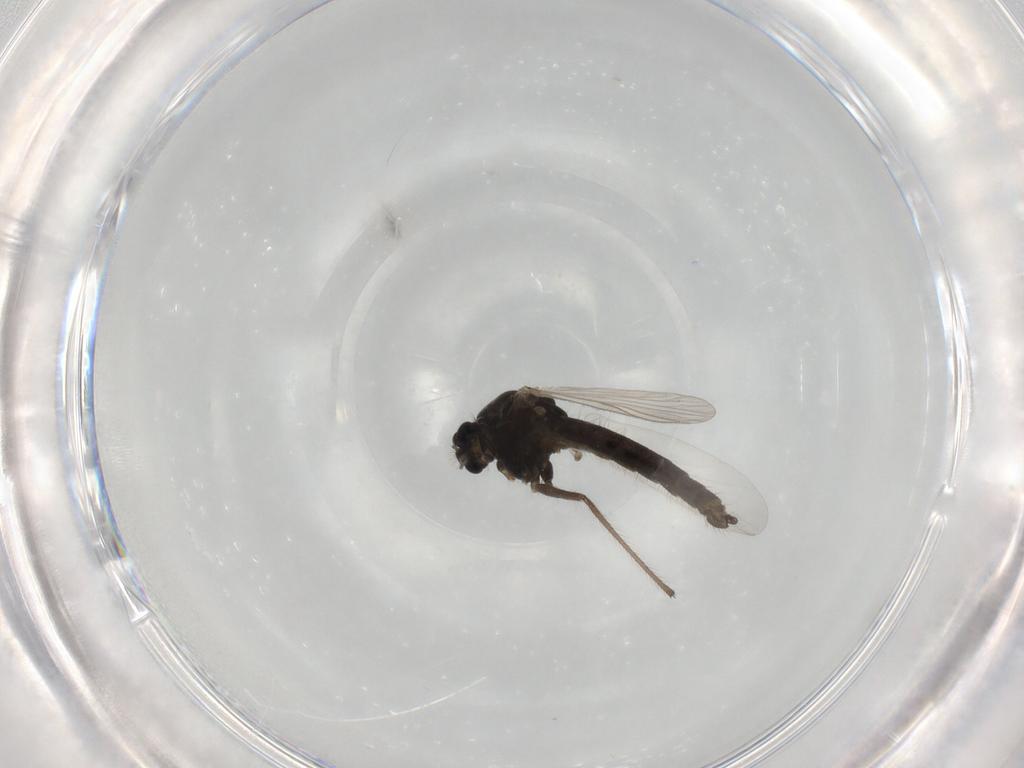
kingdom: Animalia
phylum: Arthropoda
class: Insecta
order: Diptera
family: Chironomidae
